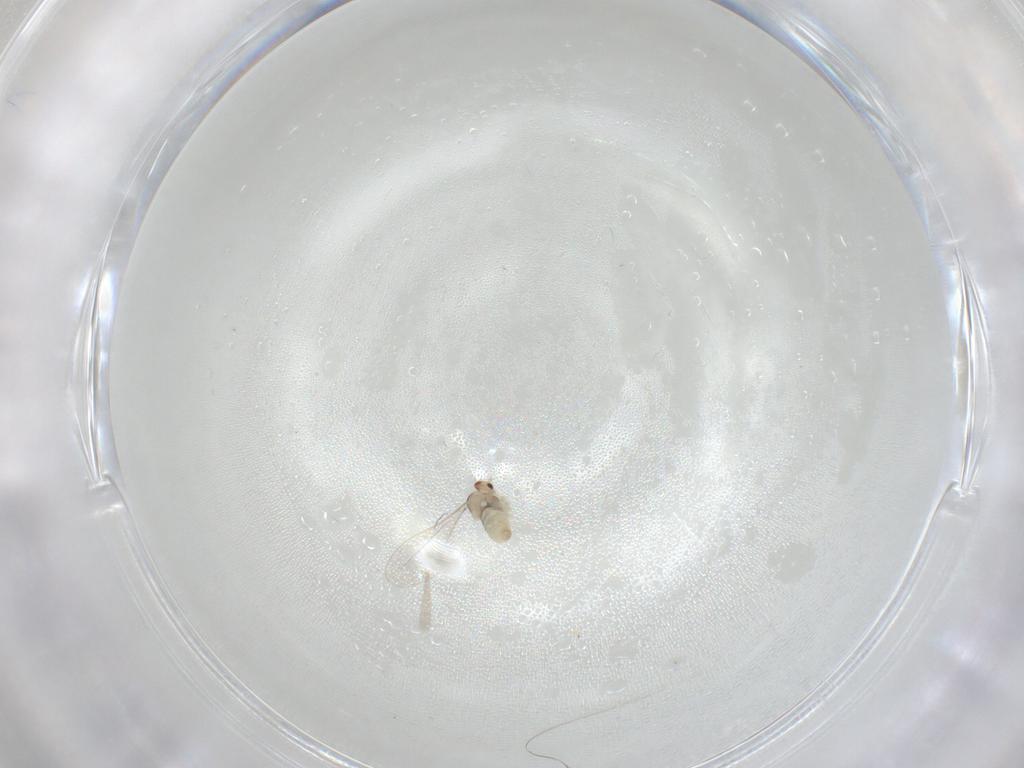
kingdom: Animalia
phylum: Arthropoda
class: Insecta
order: Diptera
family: Cecidomyiidae
